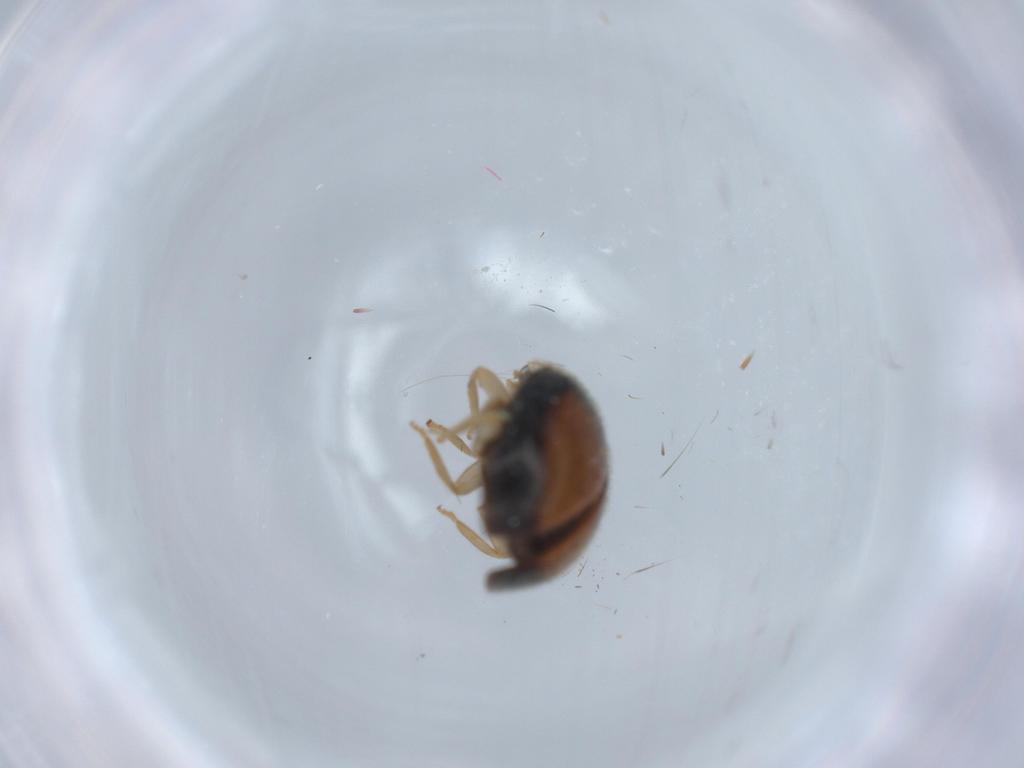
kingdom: Animalia
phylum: Arthropoda
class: Insecta
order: Coleoptera
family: Coccinellidae
